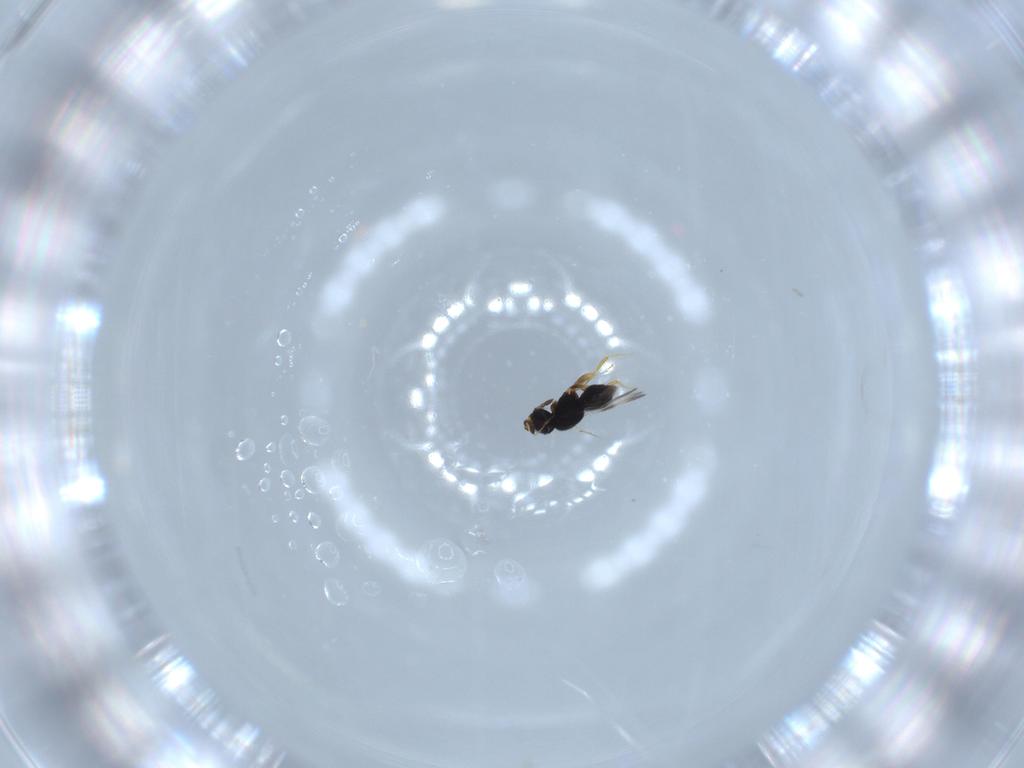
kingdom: Animalia
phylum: Arthropoda
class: Insecta
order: Hymenoptera
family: Ceraphronidae
